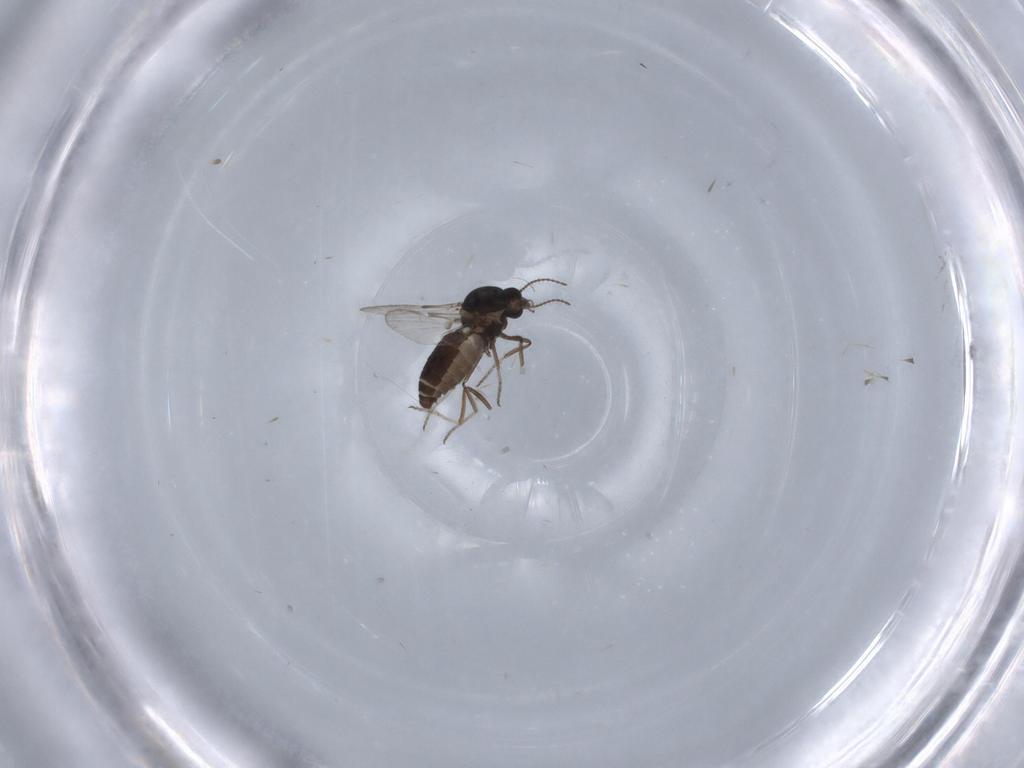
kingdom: Animalia
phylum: Arthropoda
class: Insecta
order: Diptera
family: Ceratopogonidae
